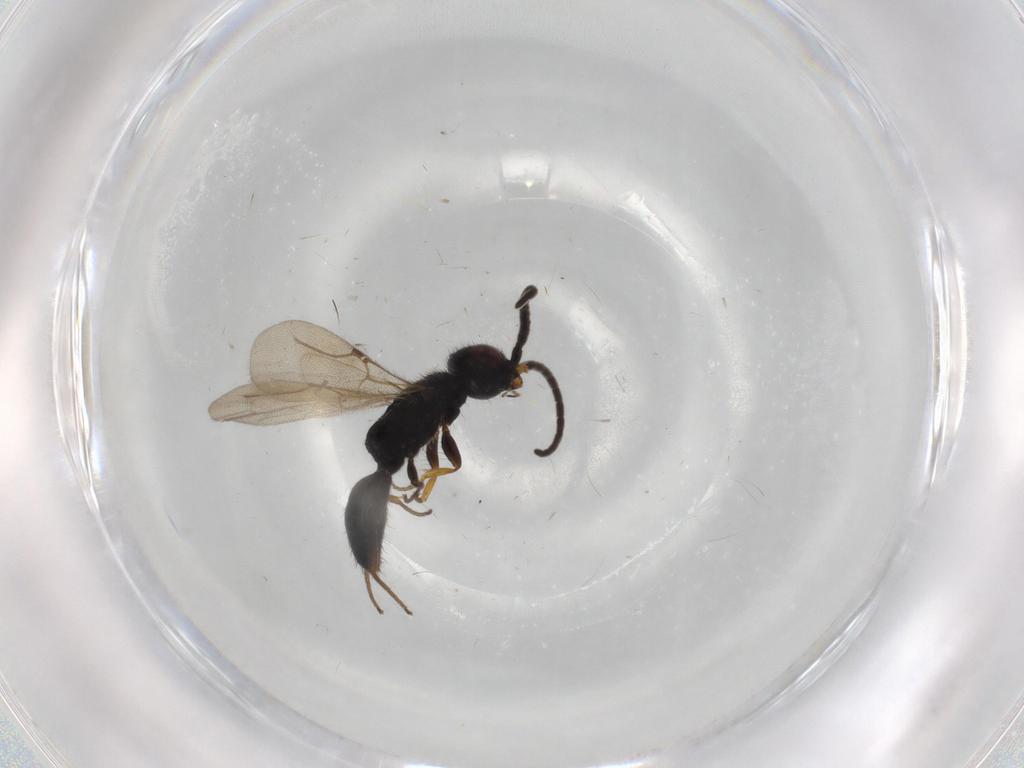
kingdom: Animalia
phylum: Arthropoda
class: Insecta
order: Hymenoptera
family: Bethylidae
